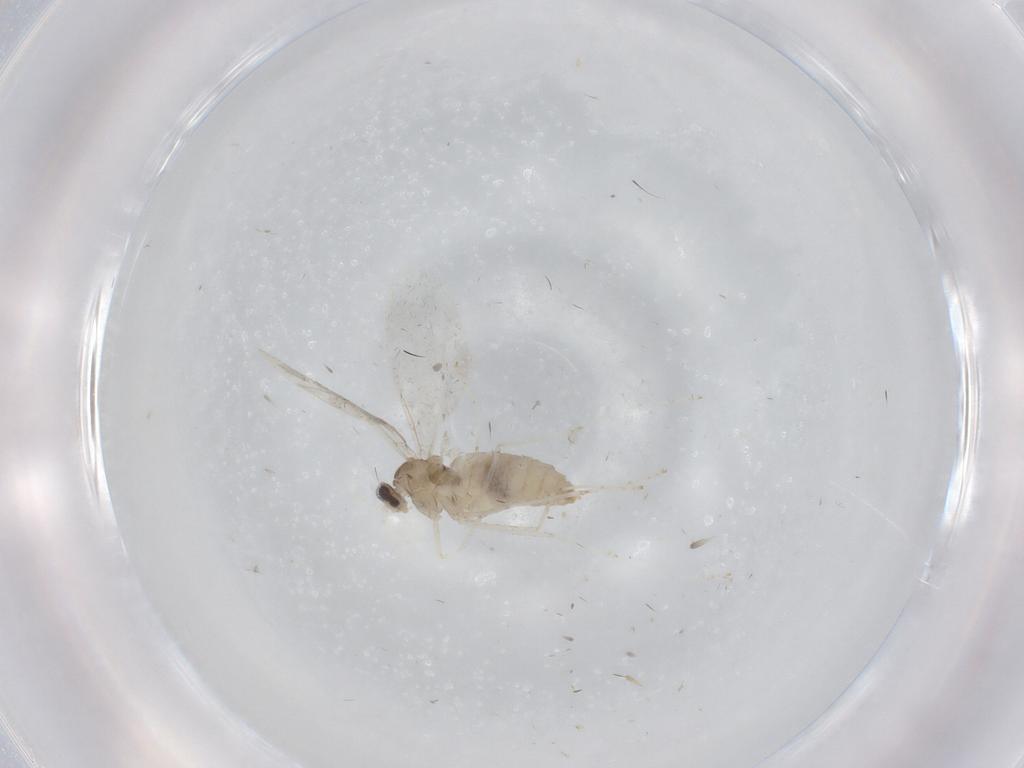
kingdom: Animalia
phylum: Arthropoda
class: Insecta
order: Diptera
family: Cecidomyiidae
